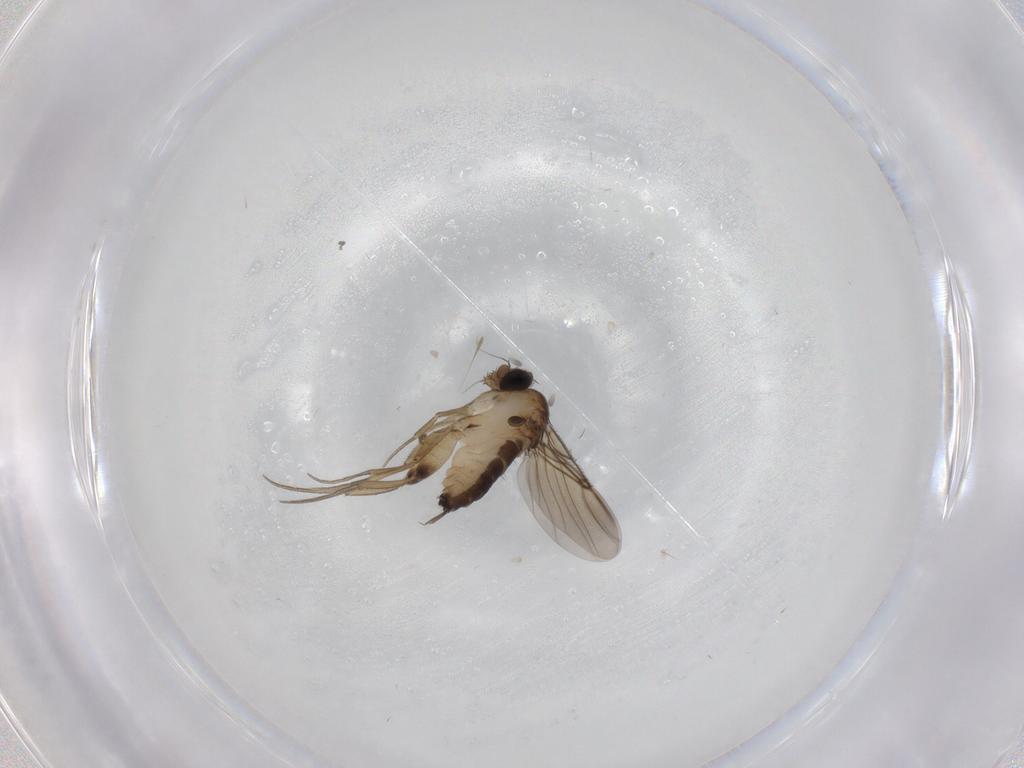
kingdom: Animalia
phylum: Arthropoda
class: Insecta
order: Diptera
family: Phoridae
